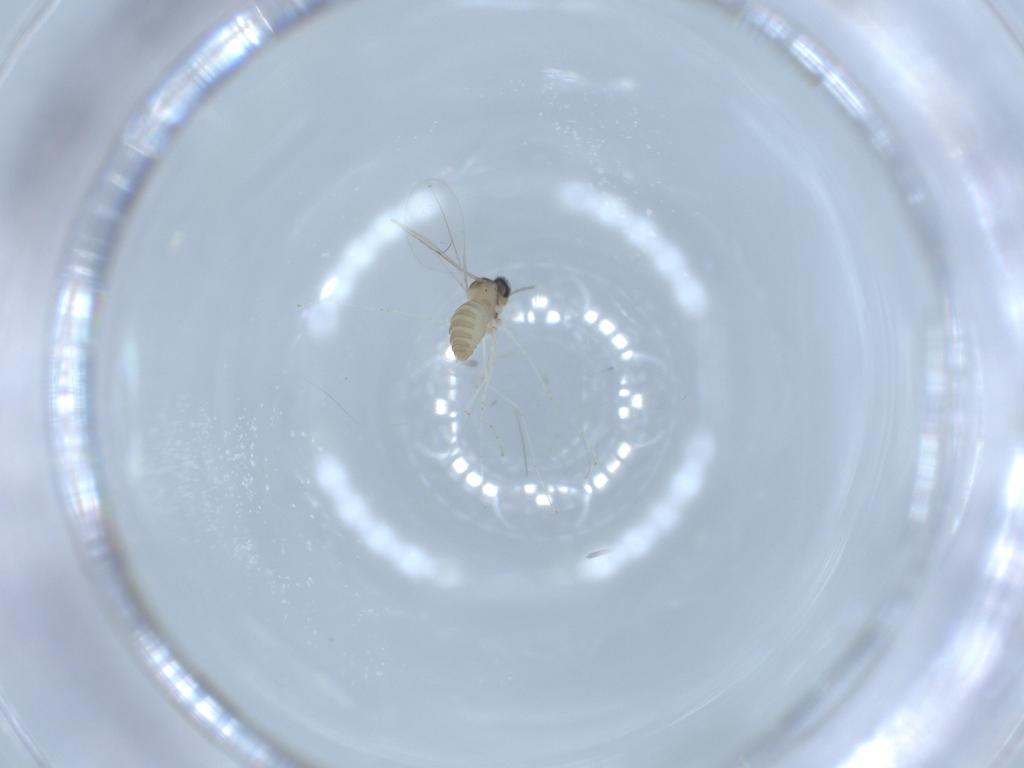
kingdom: Animalia
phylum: Arthropoda
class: Insecta
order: Diptera
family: Cecidomyiidae
